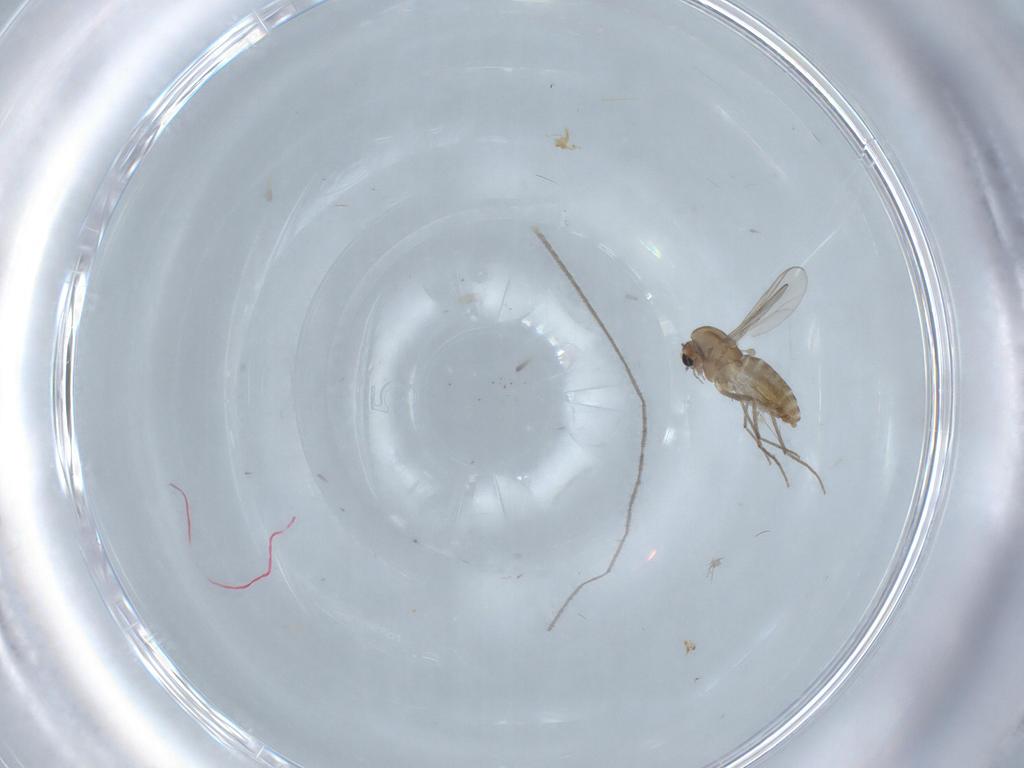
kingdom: Animalia
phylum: Arthropoda
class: Insecta
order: Diptera
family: Chironomidae
